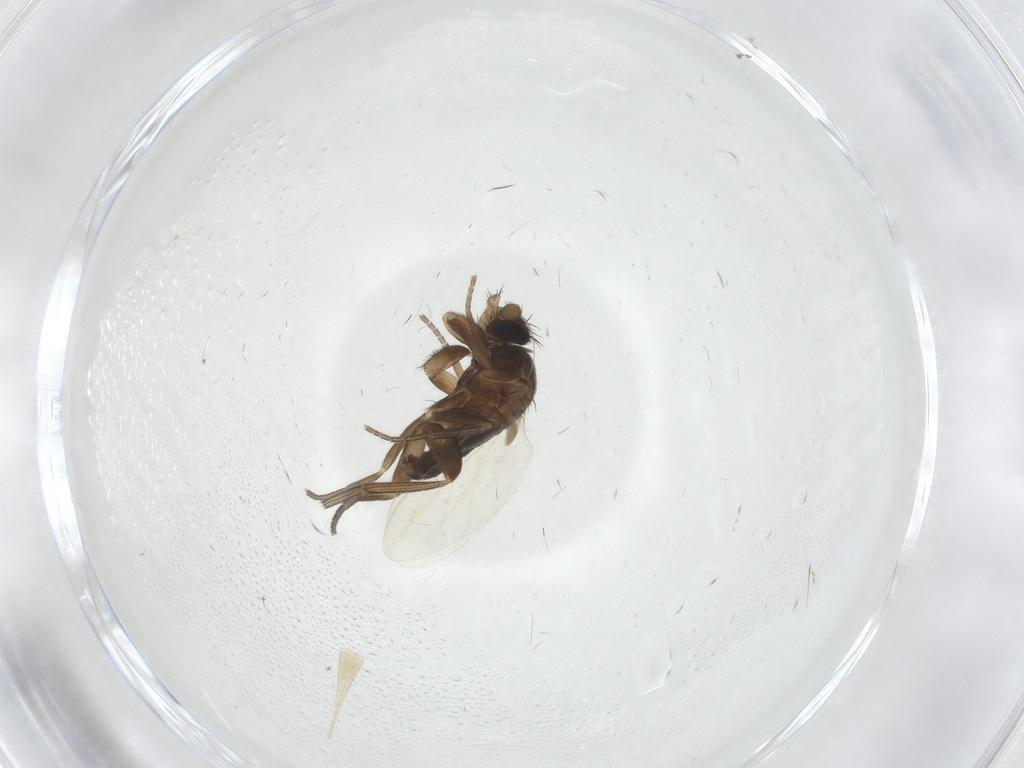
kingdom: Animalia
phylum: Arthropoda
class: Insecta
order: Diptera
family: Phoridae
